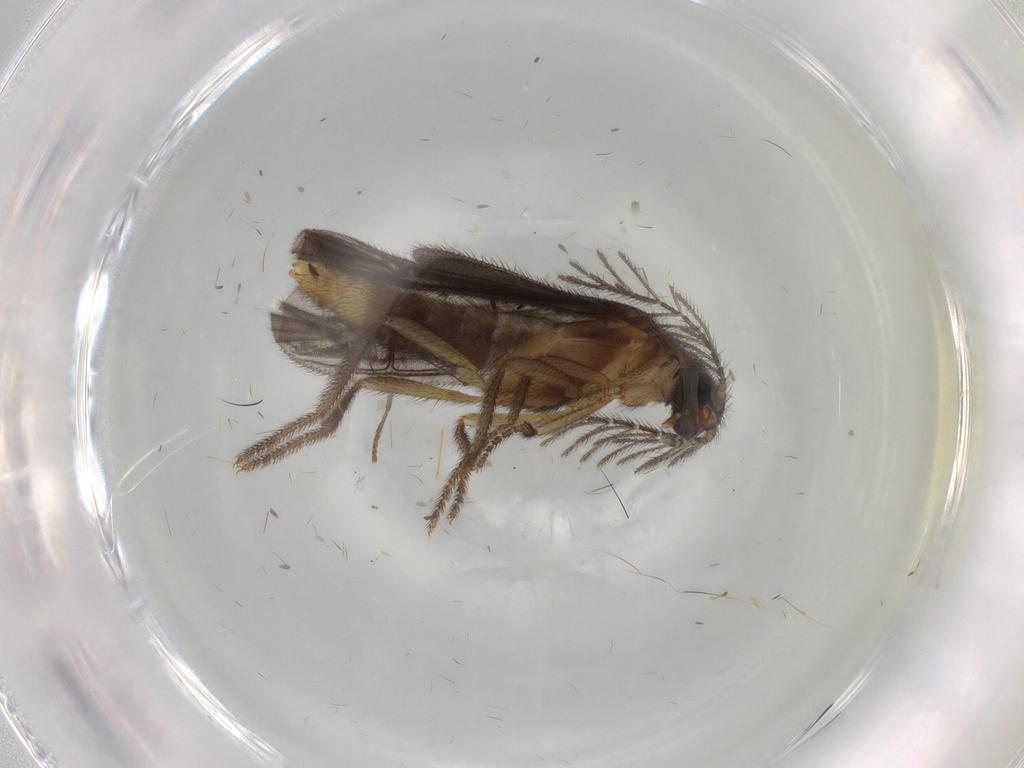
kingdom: Animalia
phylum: Arthropoda
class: Insecta
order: Coleoptera
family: Phengodidae
